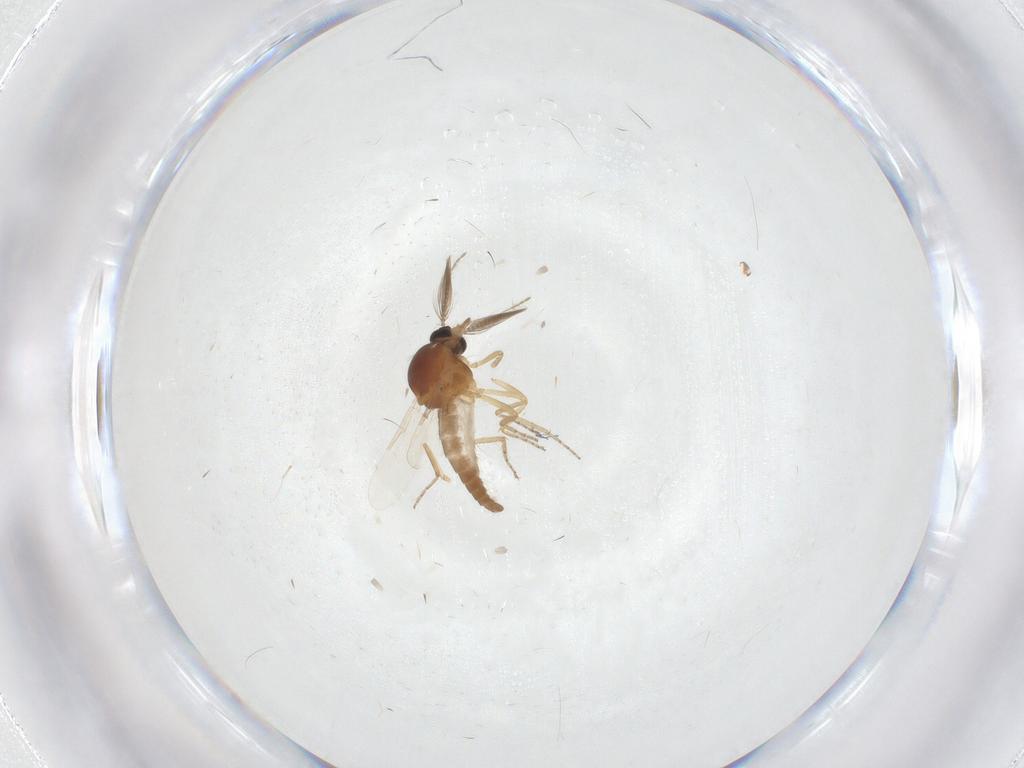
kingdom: Animalia
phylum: Arthropoda
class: Insecta
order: Diptera
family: Ceratopogonidae
